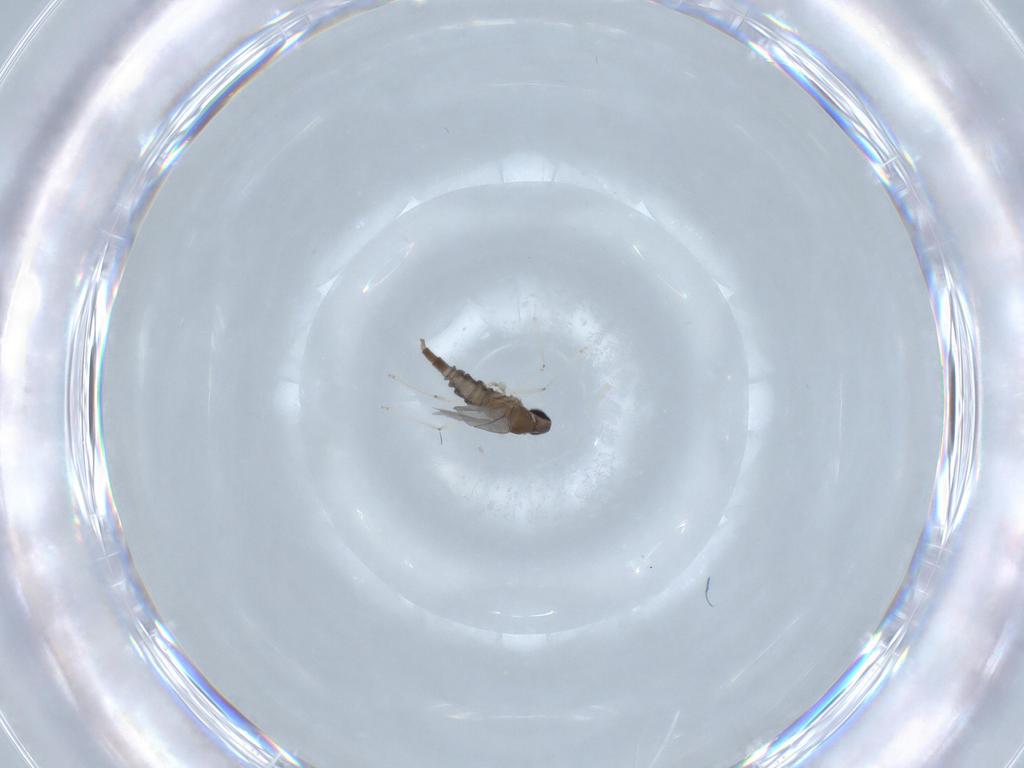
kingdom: Animalia
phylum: Arthropoda
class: Insecta
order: Diptera
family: Cecidomyiidae
